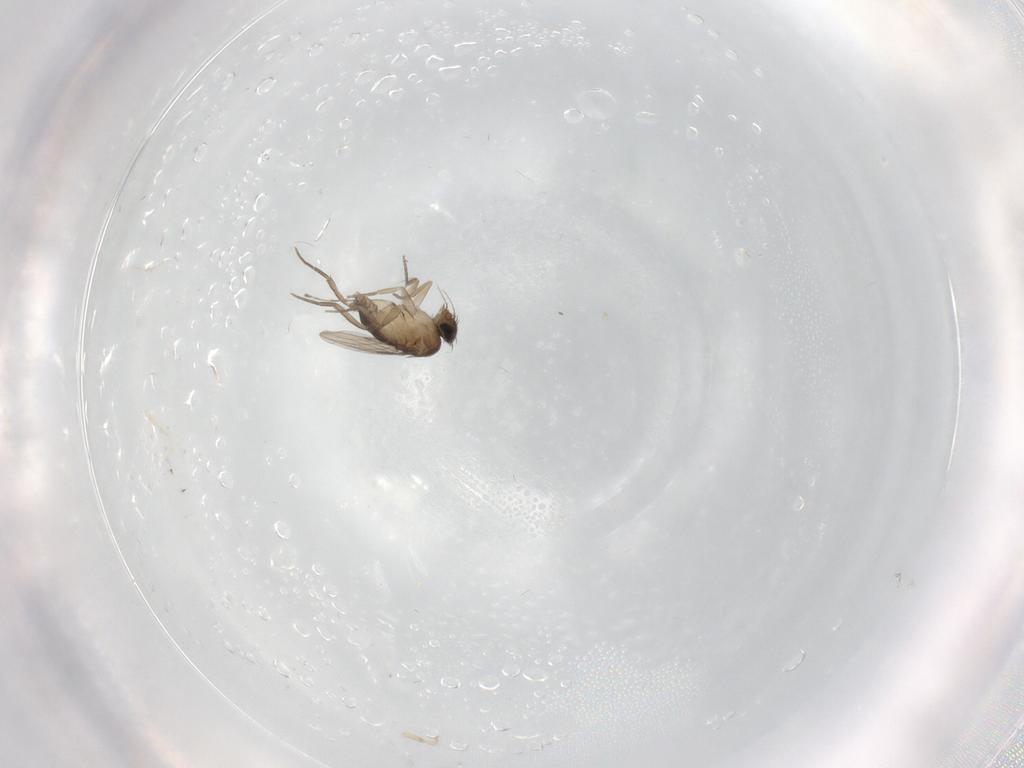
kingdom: Animalia
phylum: Arthropoda
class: Insecta
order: Diptera
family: Phoridae
